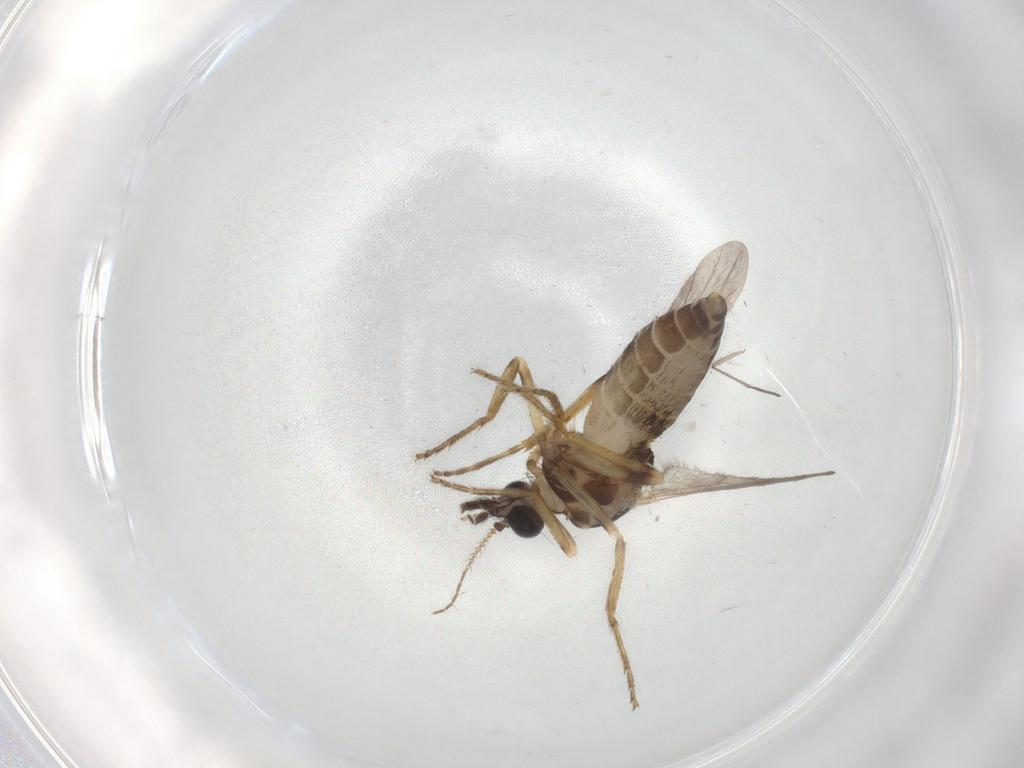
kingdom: Animalia
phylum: Arthropoda
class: Insecta
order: Diptera
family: Ceratopogonidae
